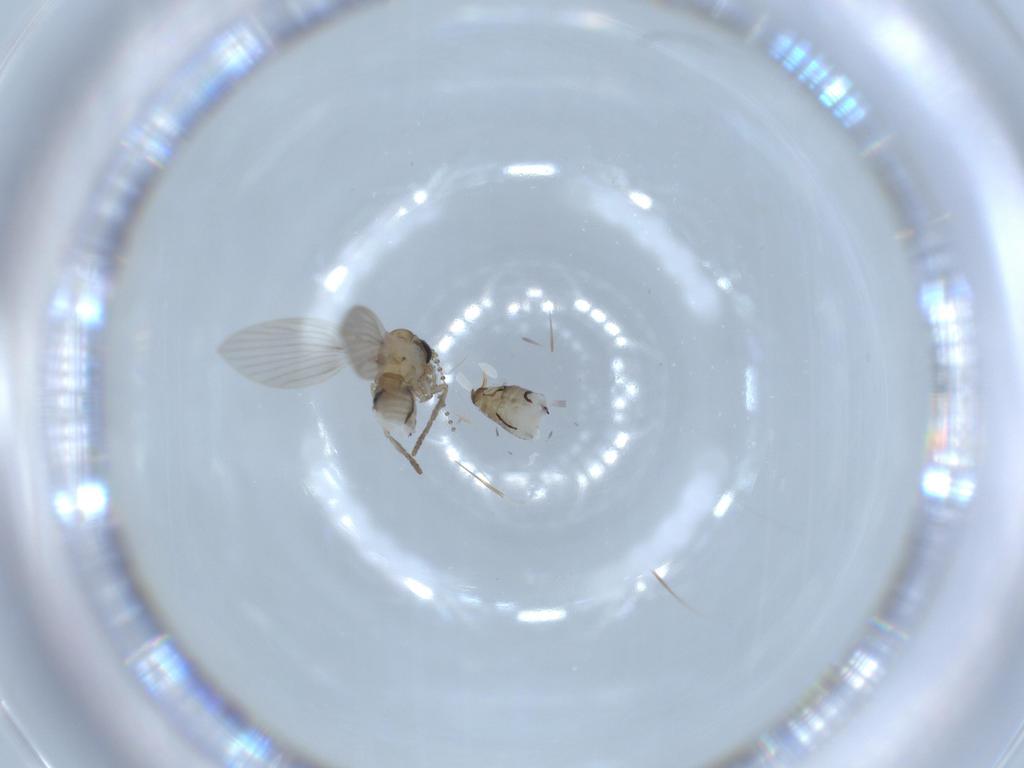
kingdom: Animalia
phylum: Arthropoda
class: Insecta
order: Diptera
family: Psychodidae
